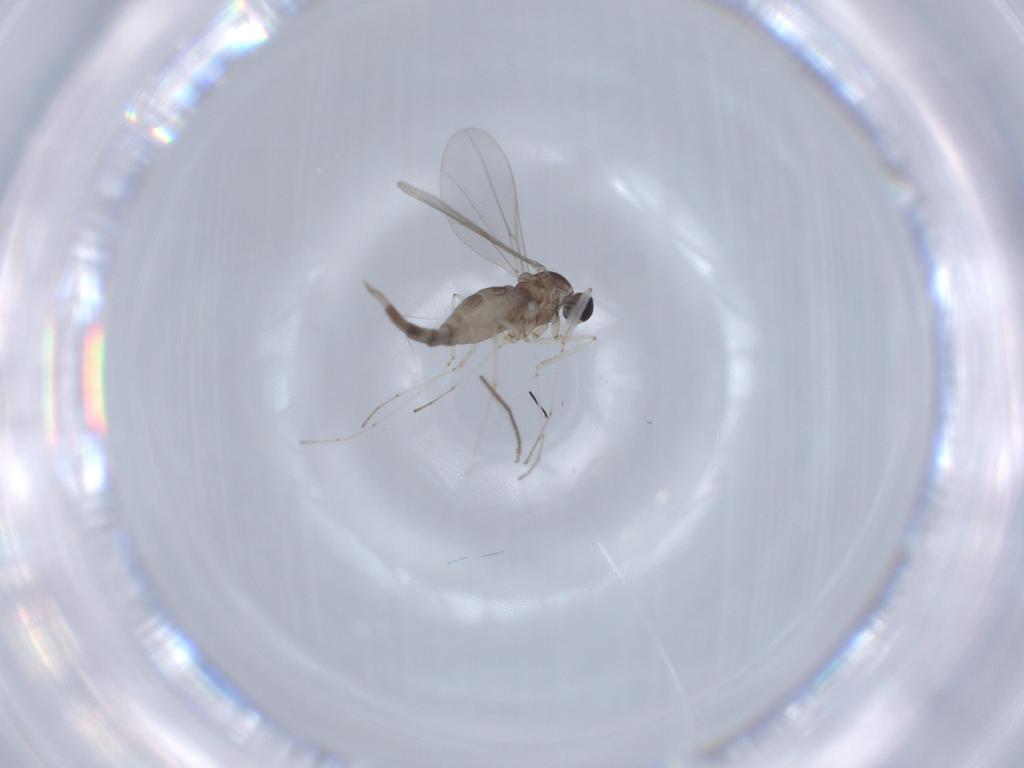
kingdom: Animalia
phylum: Arthropoda
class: Insecta
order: Diptera
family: Cecidomyiidae
